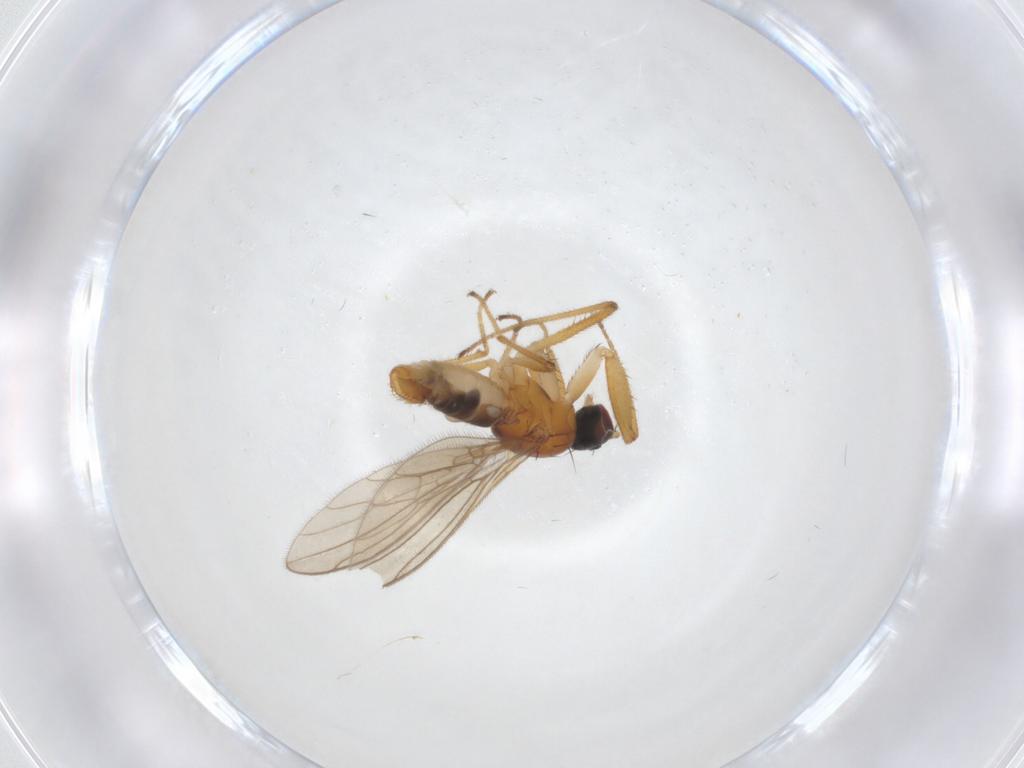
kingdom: Animalia
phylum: Arthropoda
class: Insecta
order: Diptera
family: Empididae
